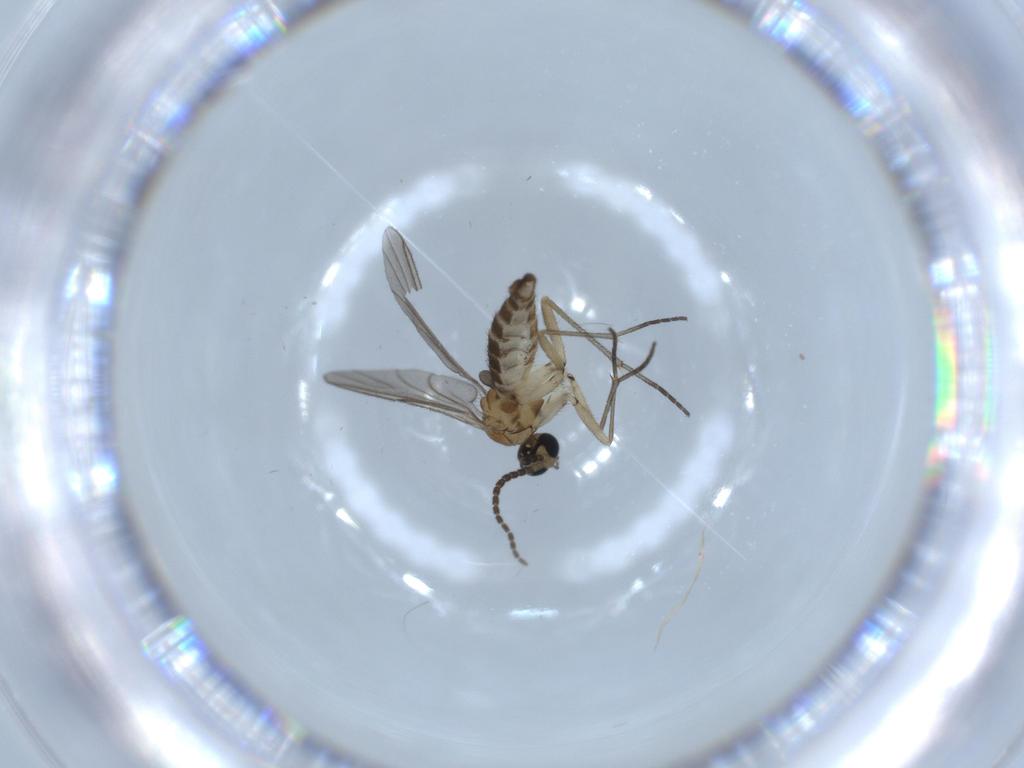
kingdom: Animalia
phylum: Arthropoda
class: Insecta
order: Diptera
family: Sciaridae
